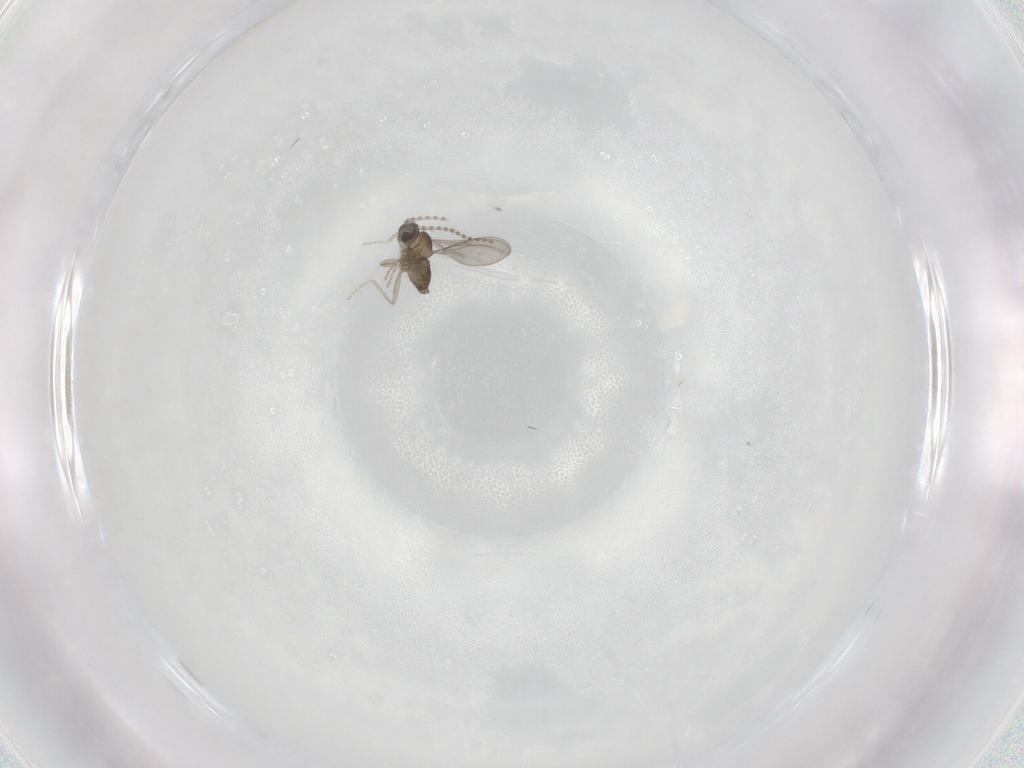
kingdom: Animalia
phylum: Arthropoda
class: Insecta
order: Diptera
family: Cecidomyiidae
